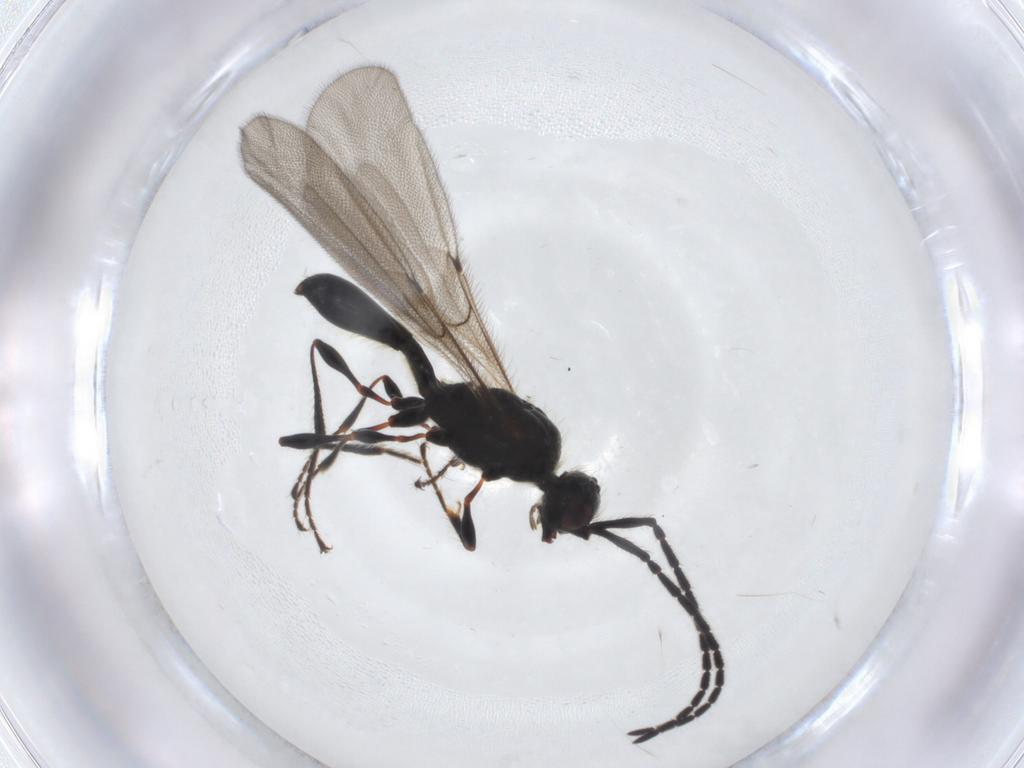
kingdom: Animalia
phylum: Arthropoda
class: Insecta
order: Hymenoptera
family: Diapriidae
